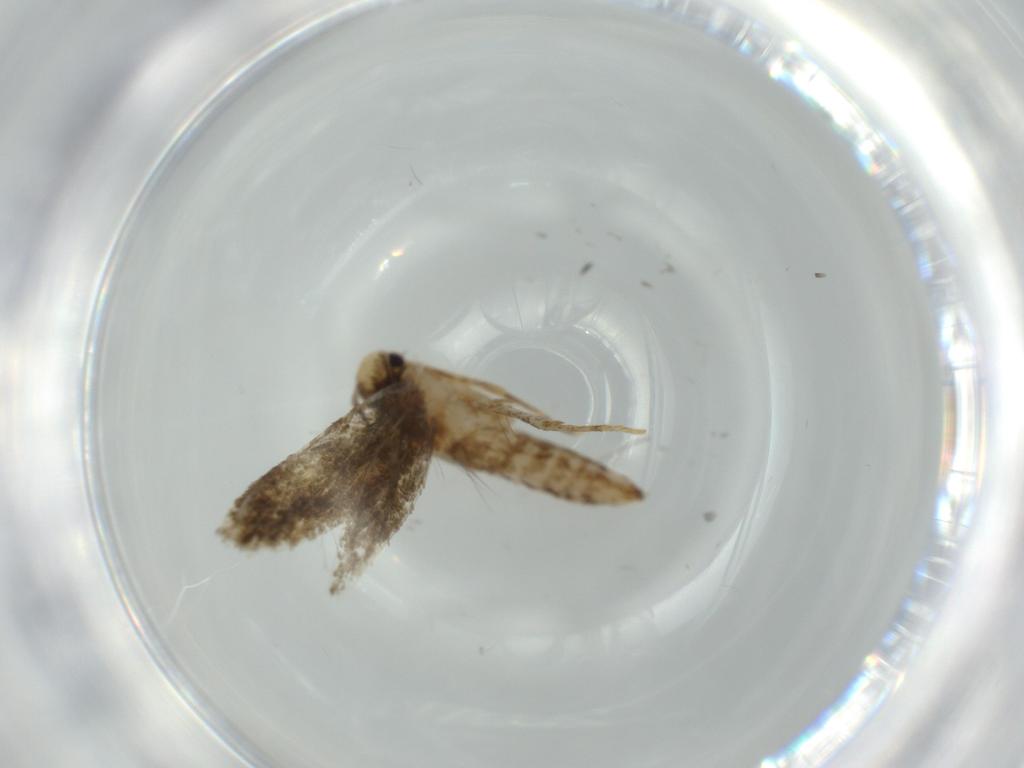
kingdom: Animalia
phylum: Arthropoda
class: Insecta
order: Lepidoptera
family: Tineidae
